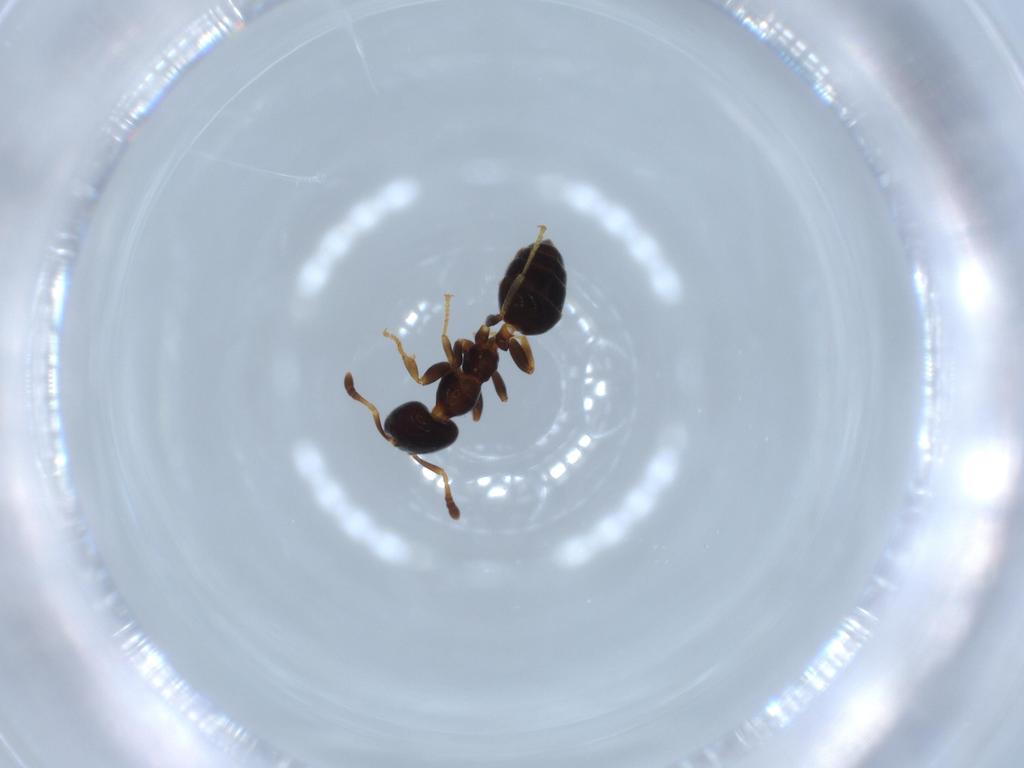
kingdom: Animalia
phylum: Arthropoda
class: Insecta
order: Hymenoptera
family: Formicidae
